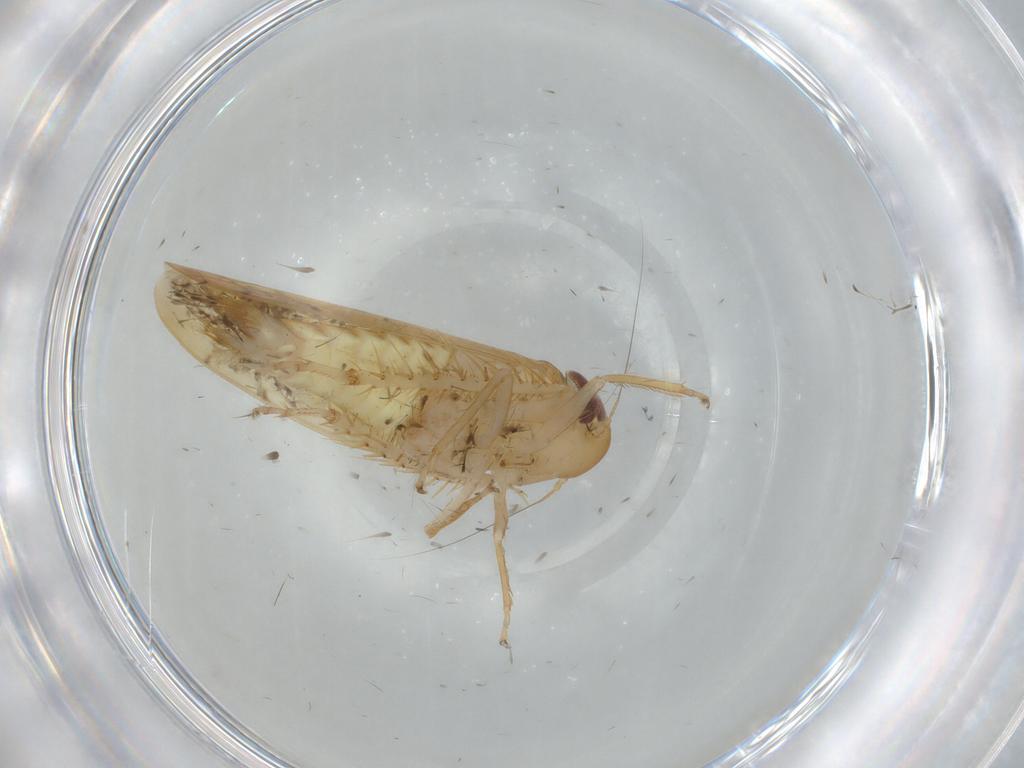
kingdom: Animalia
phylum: Arthropoda
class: Insecta
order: Hemiptera
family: Cicadellidae
